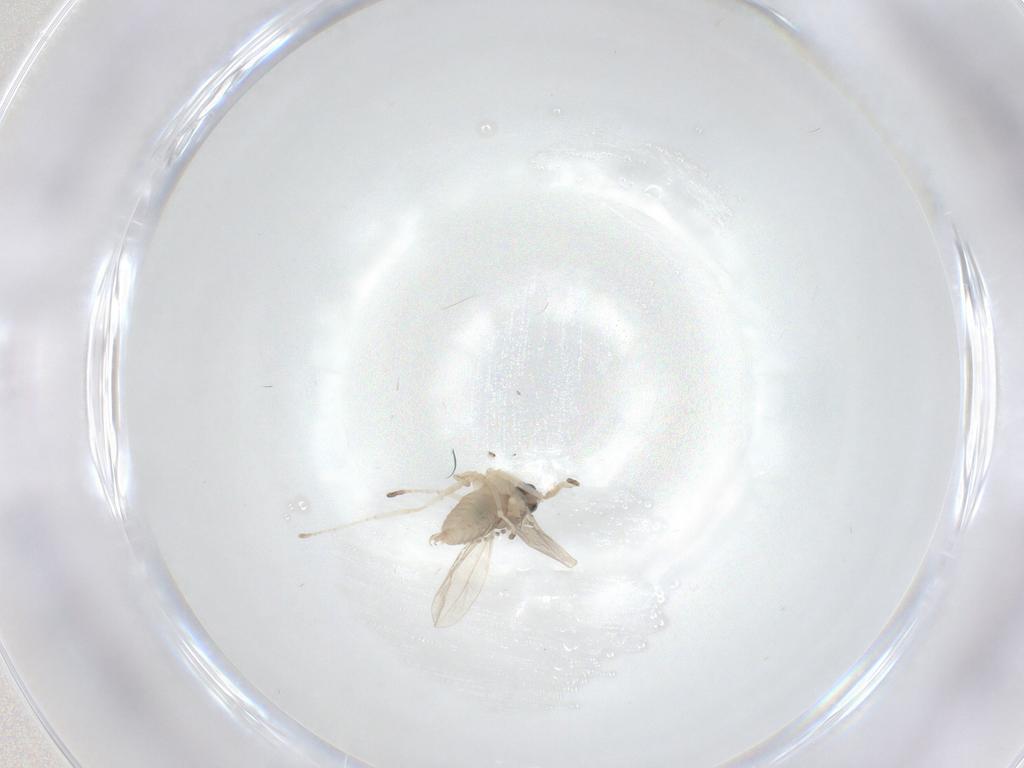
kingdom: Animalia
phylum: Arthropoda
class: Insecta
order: Diptera
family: Cecidomyiidae
